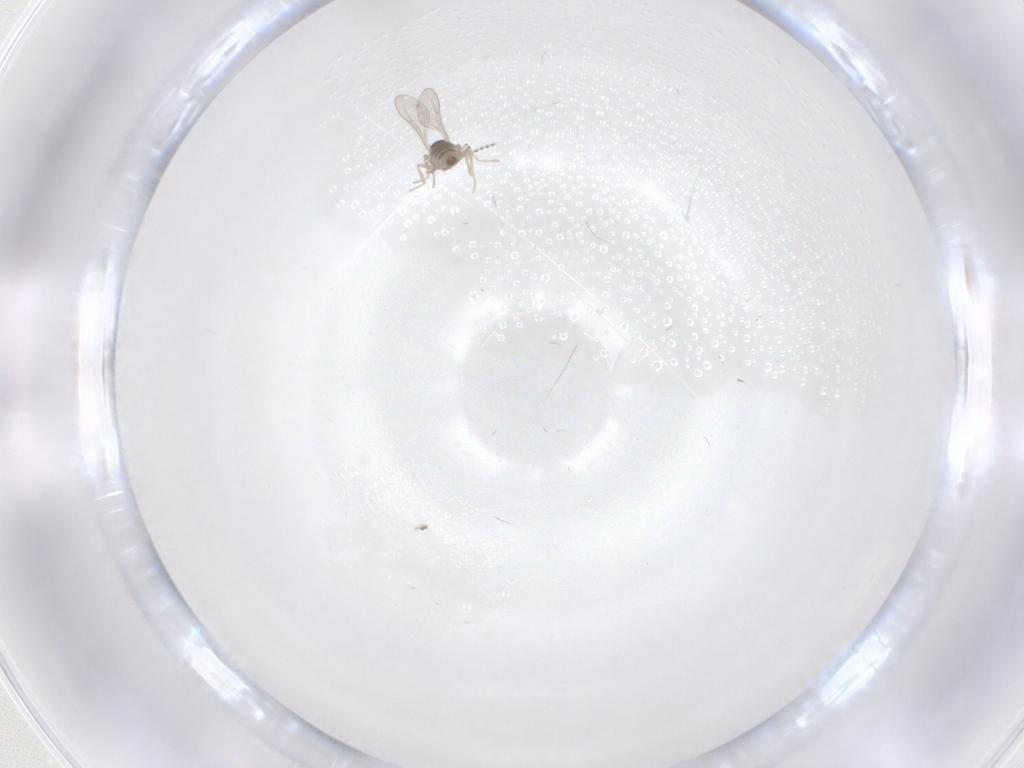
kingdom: Animalia
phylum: Arthropoda
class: Insecta
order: Diptera
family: Cecidomyiidae
